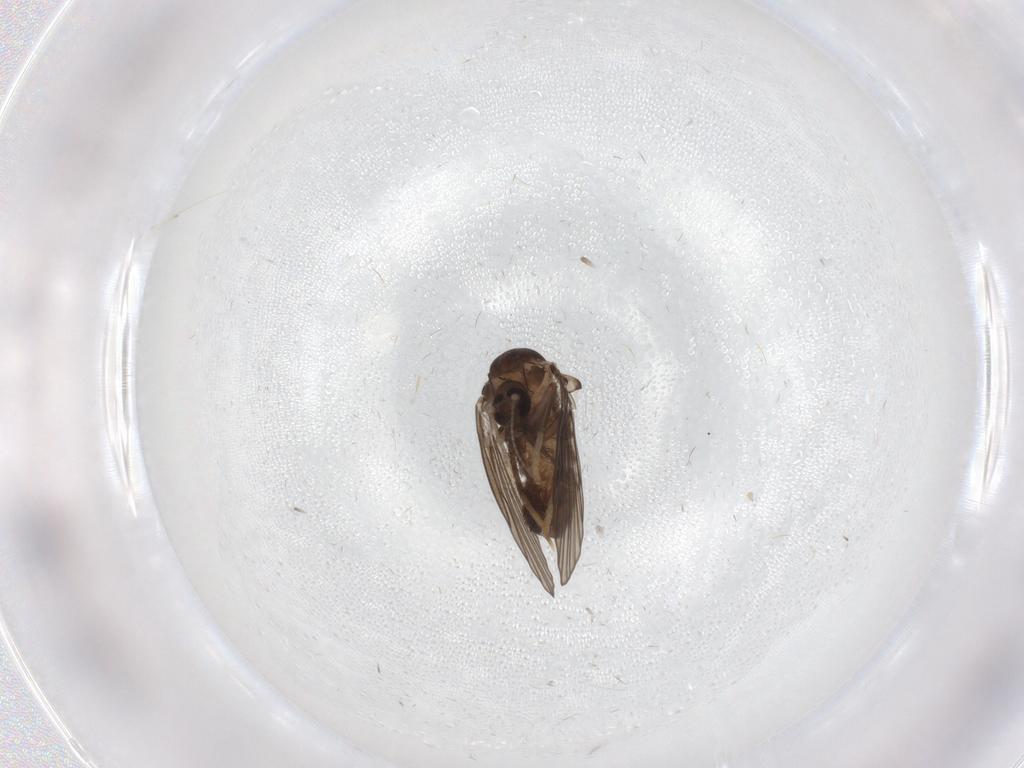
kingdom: Animalia
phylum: Arthropoda
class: Insecta
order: Diptera
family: Psychodidae
